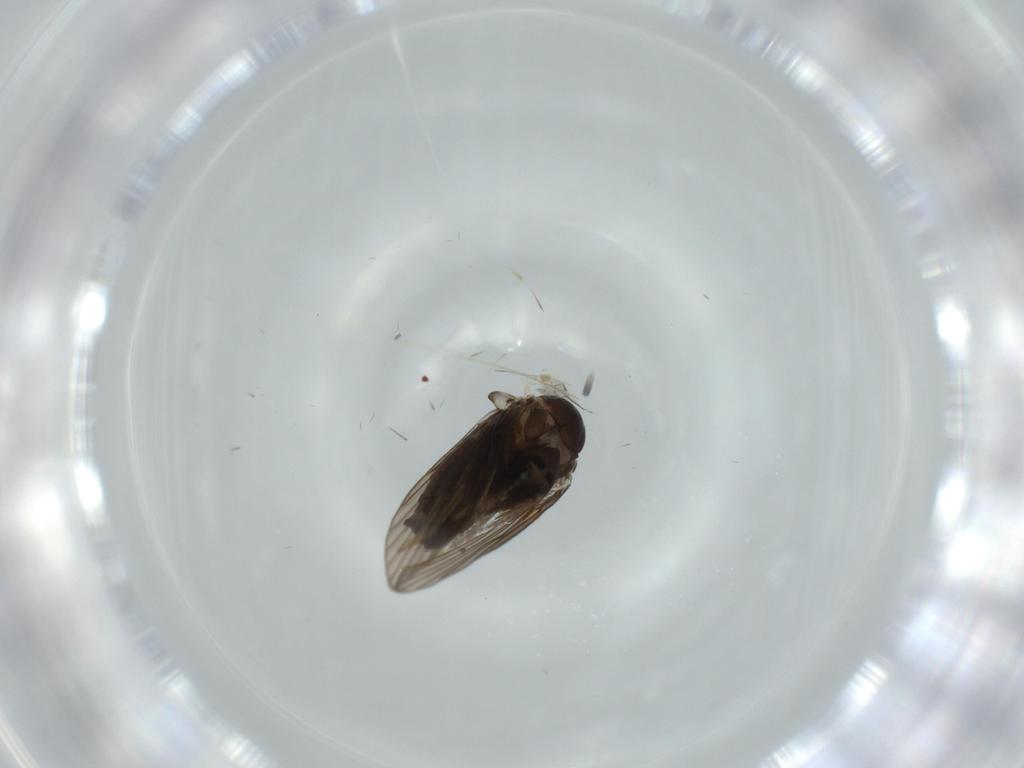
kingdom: Animalia
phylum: Arthropoda
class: Insecta
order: Diptera
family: Psychodidae
